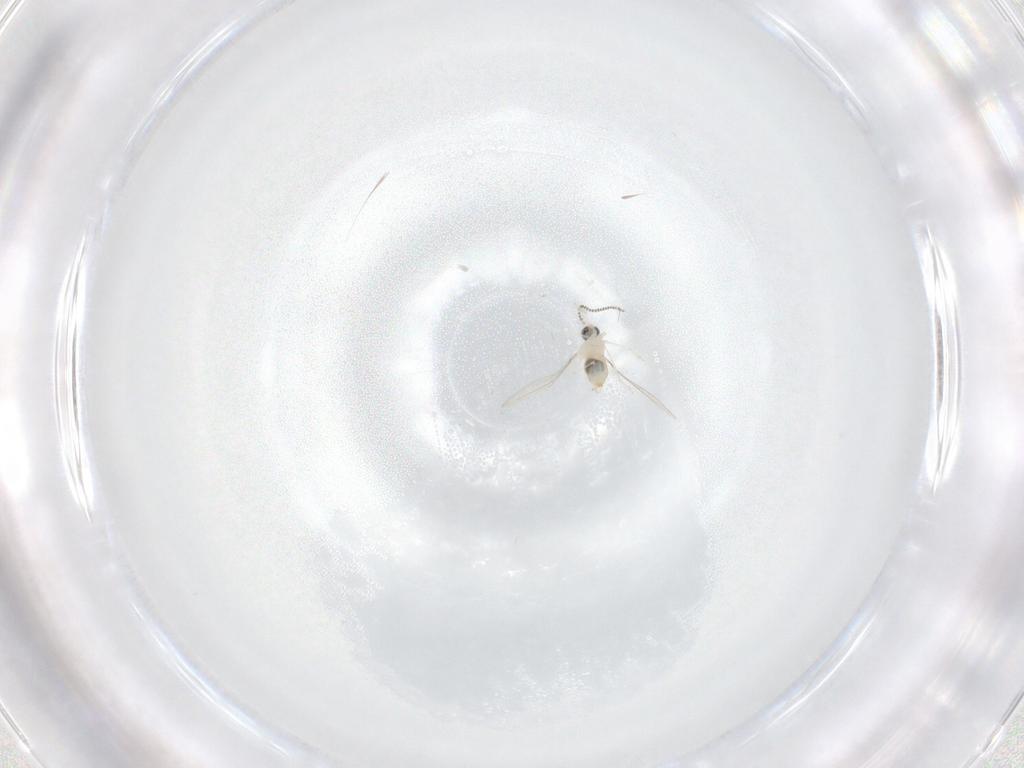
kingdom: Animalia
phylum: Arthropoda
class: Insecta
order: Diptera
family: Cecidomyiidae
